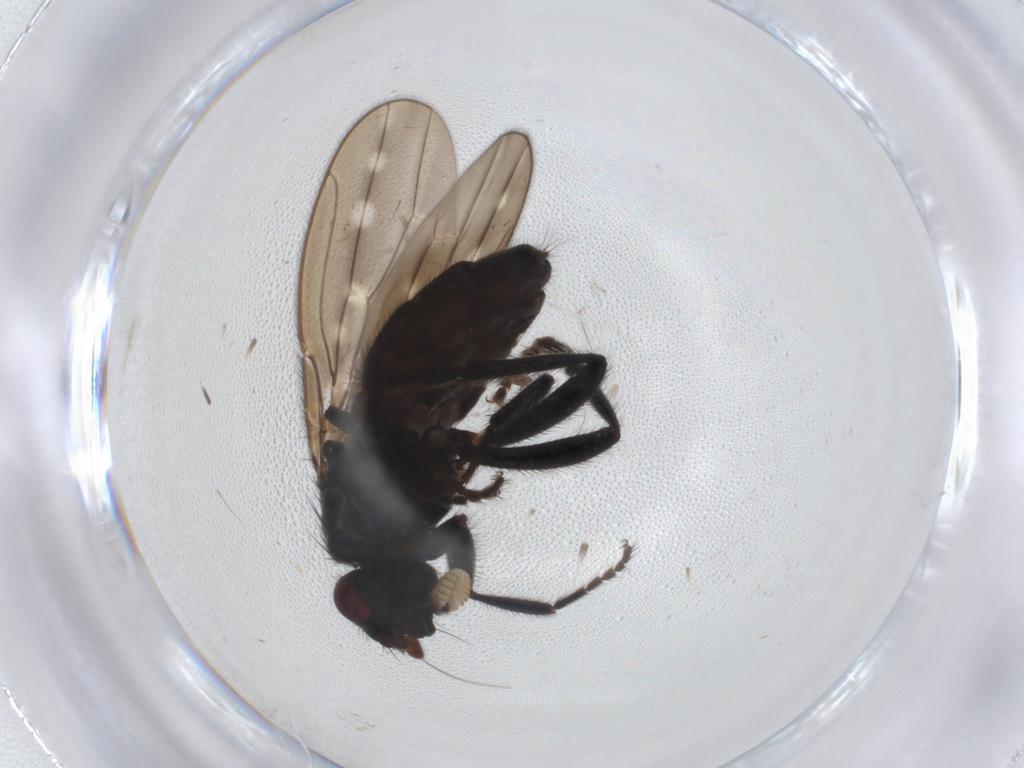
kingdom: Animalia
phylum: Arthropoda
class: Insecta
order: Diptera
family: Sphaeroceridae
